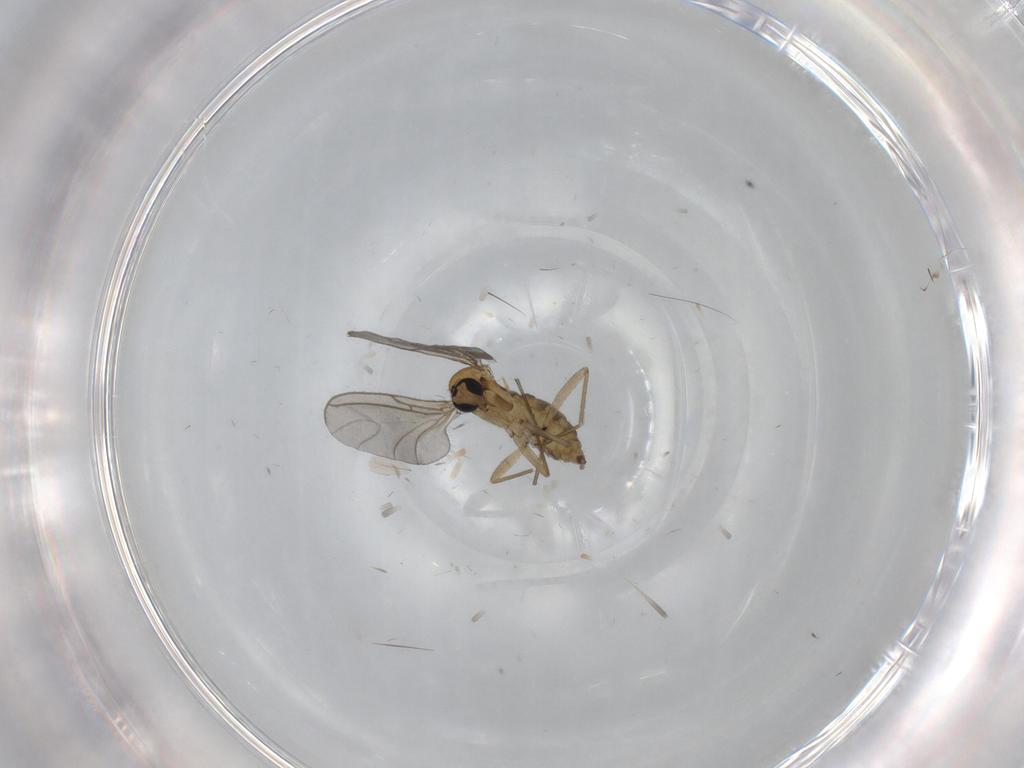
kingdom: Animalia
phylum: Arthropoda
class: Insecta
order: Diptera
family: Sciaridae
